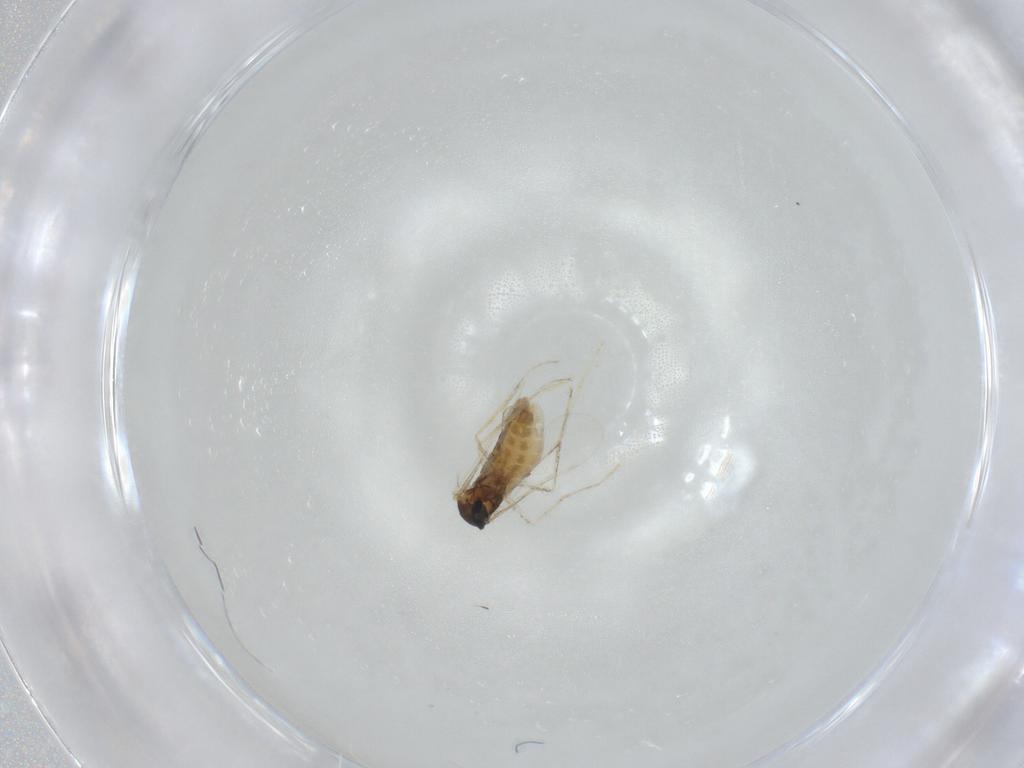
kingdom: Animalia
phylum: Arthropoda
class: Insecta
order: Diptera
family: Cecidomyiidae
